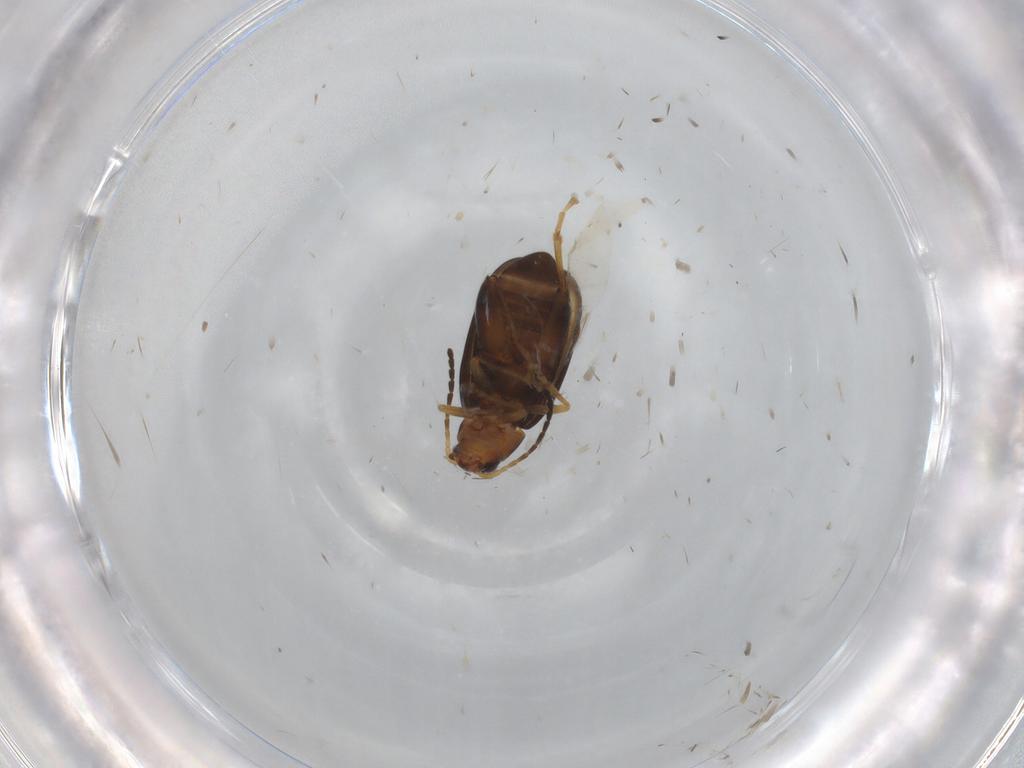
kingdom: Animalia
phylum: Arthropoda
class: Insecta
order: Coleoptera
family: Chrysomelidae
